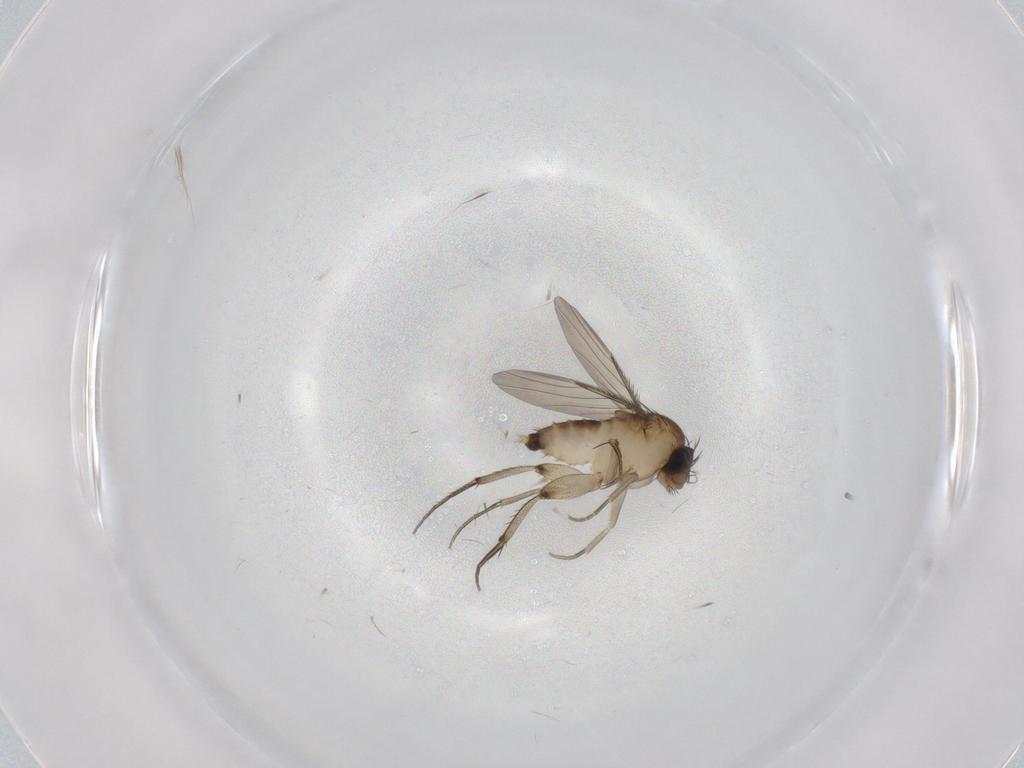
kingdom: Animalia
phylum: Arthropoda
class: Insecta
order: Diptera
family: Phoridae
